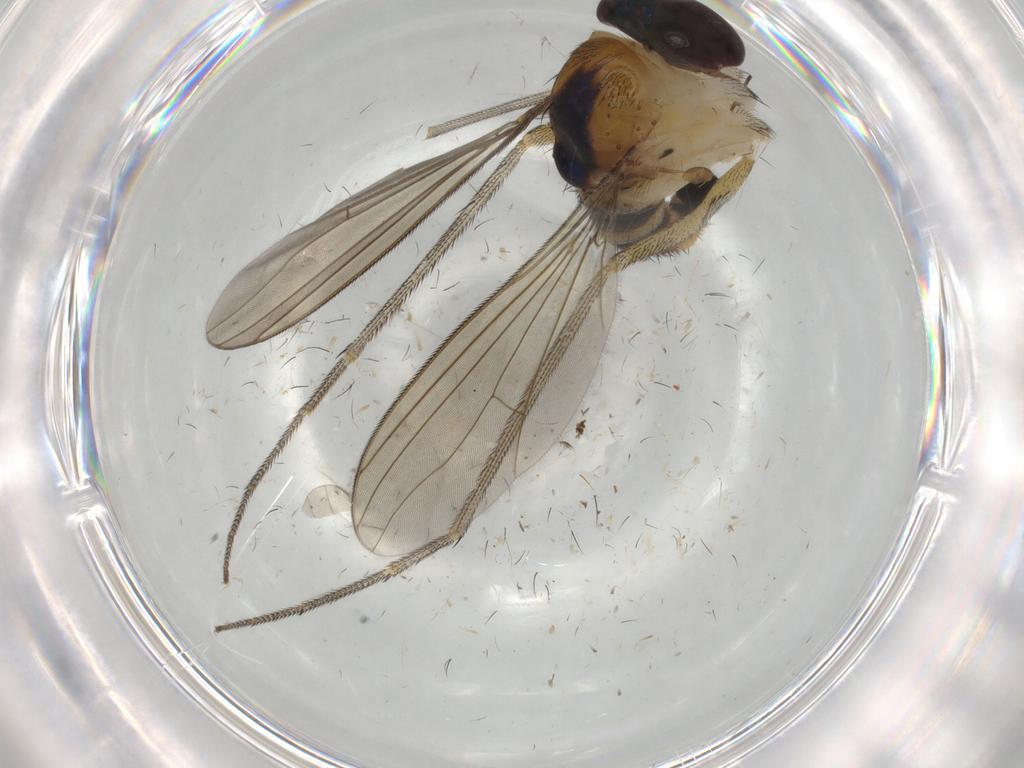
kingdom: Animalia
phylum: Arthropoda
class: Insecta
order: Diptera
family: Dolichopodidae
